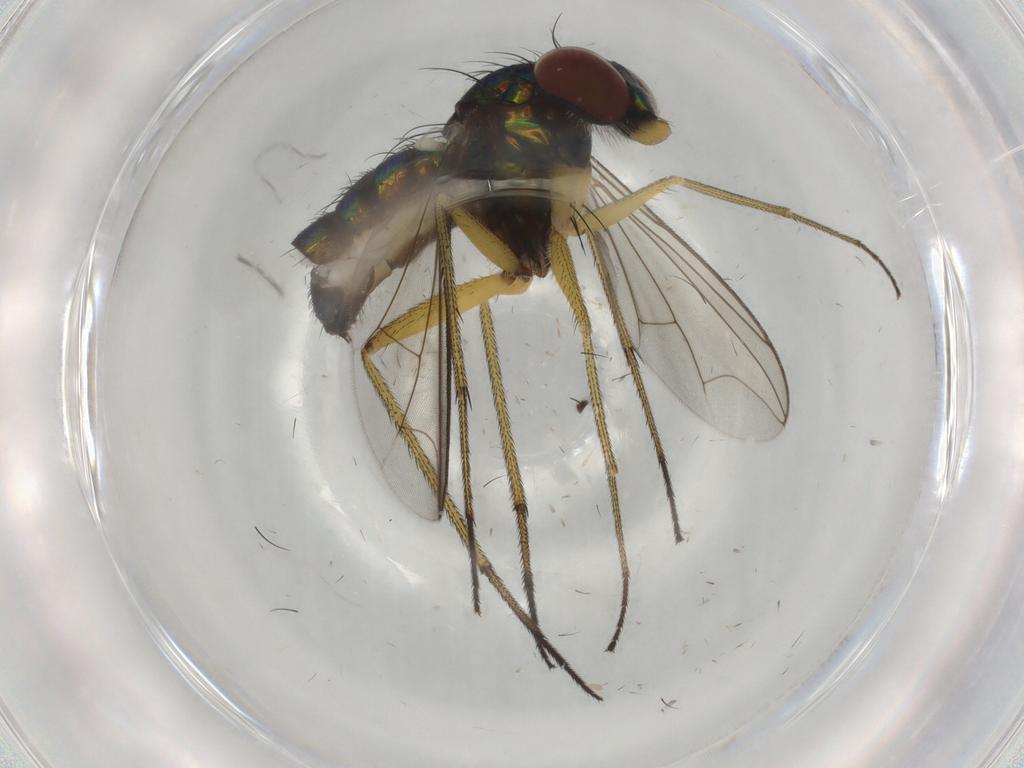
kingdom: Animalia
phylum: Arthropoda
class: Insecta
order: Diptera
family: Dolichopodidae
